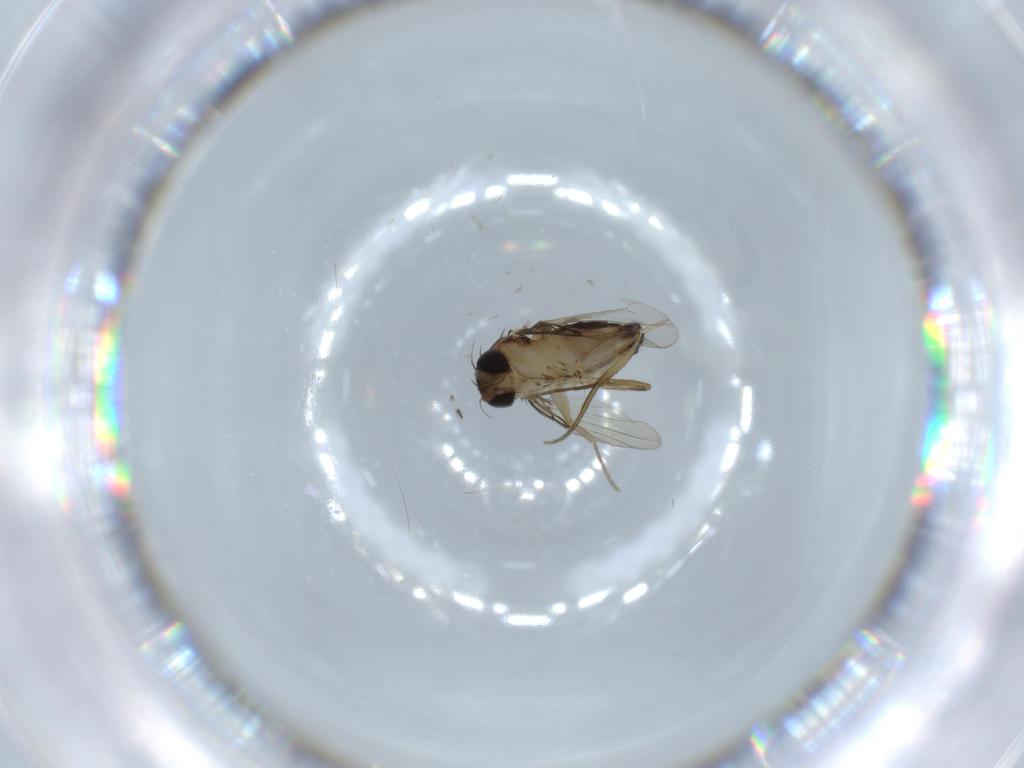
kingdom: Animalia
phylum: Arthropoda
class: Insecta
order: Diptera
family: Phoridae
